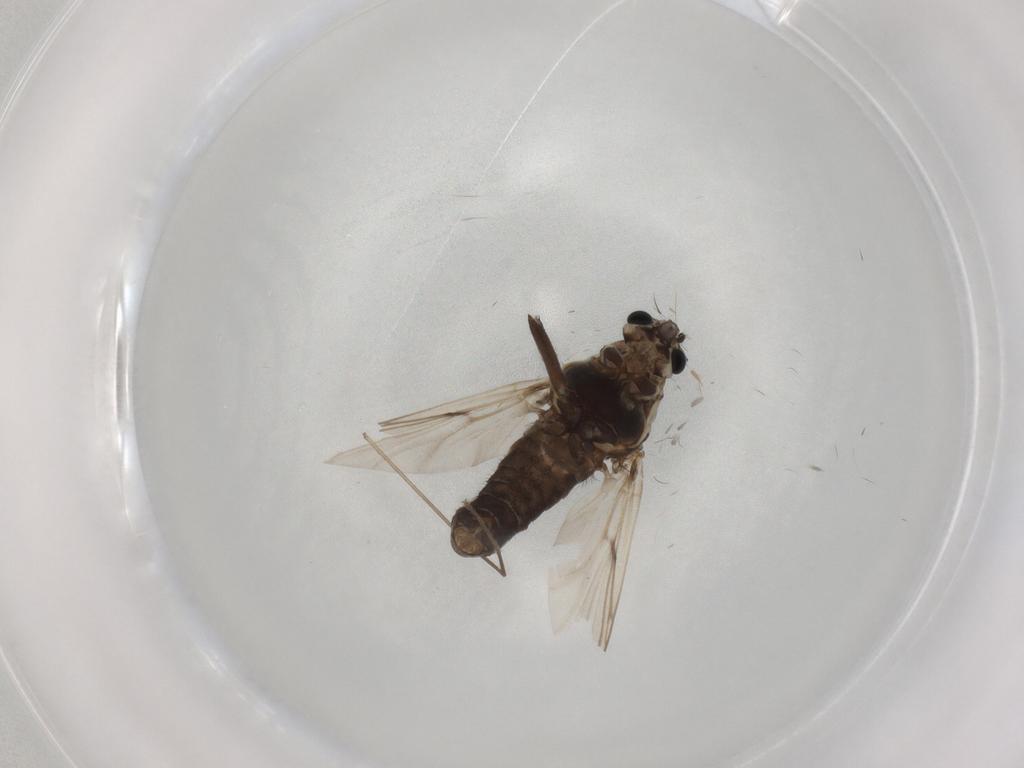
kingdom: Animalia
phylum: Arthropoda
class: Insecta
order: Diptera
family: Chironomidae
